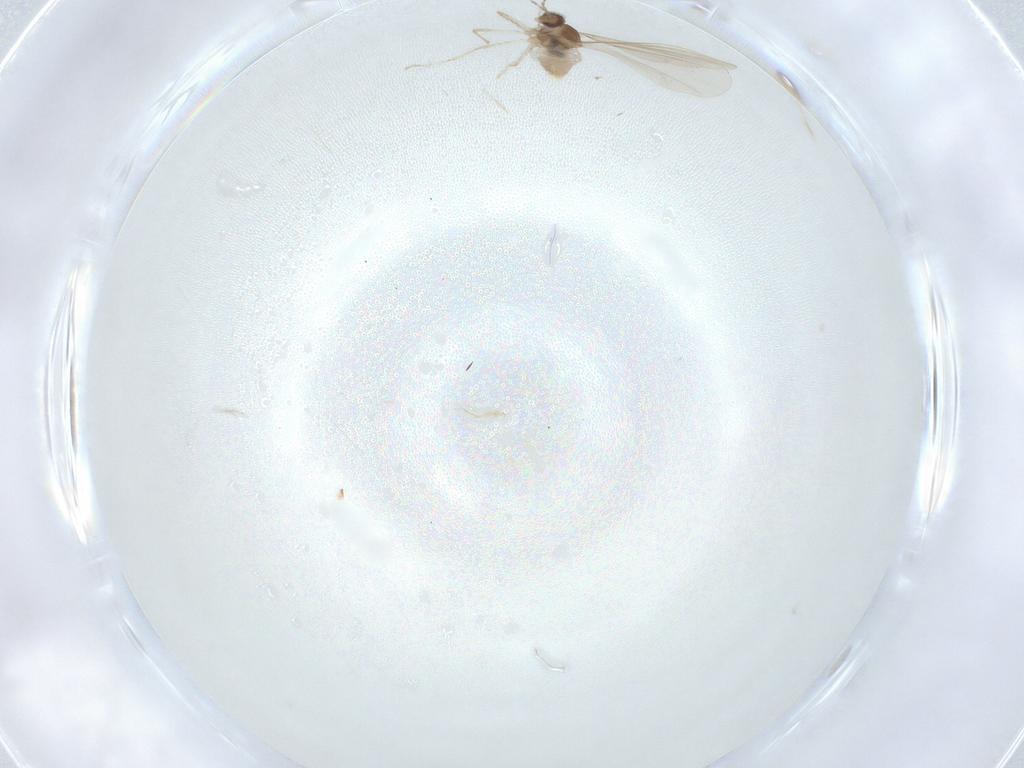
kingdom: Animalia
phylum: Arthropoda
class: Insecta
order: Diptera
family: Cecidomyiidae
